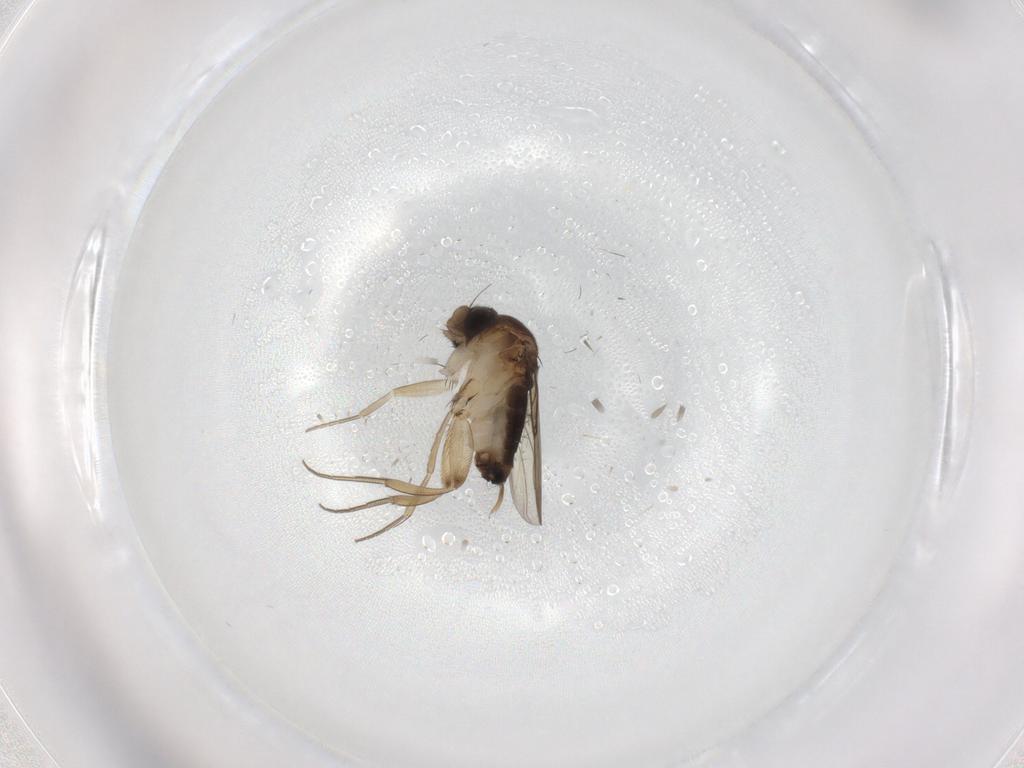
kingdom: Animalia
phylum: Arthropoda
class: Insecta
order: Diptera
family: Phoridae
